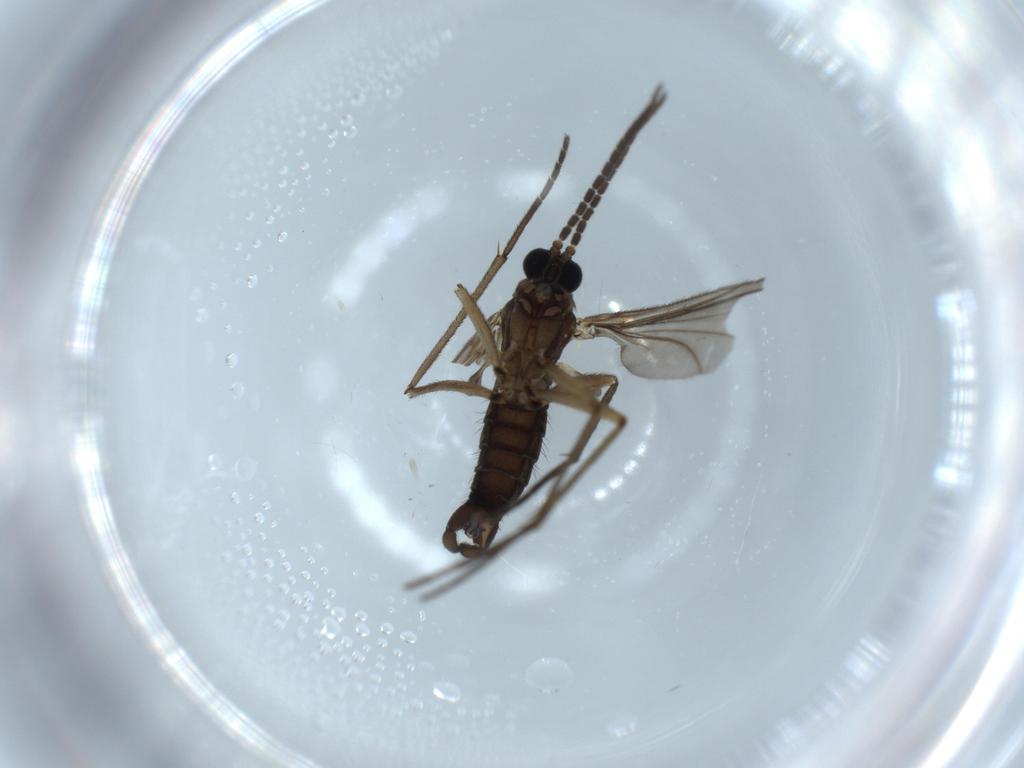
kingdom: Animalia
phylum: Arthropoda
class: Insecta
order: Diptera
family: Sciaridae
